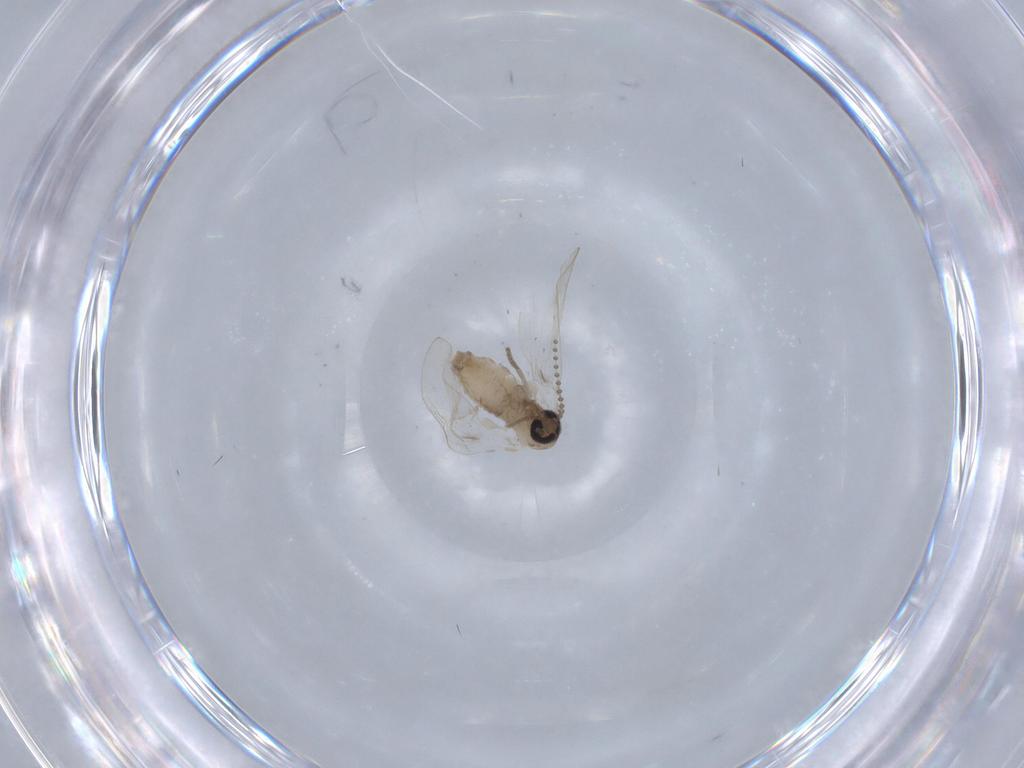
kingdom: Animalia
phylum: Arthropoda
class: Insecta
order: Diptera
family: Psychodidae
